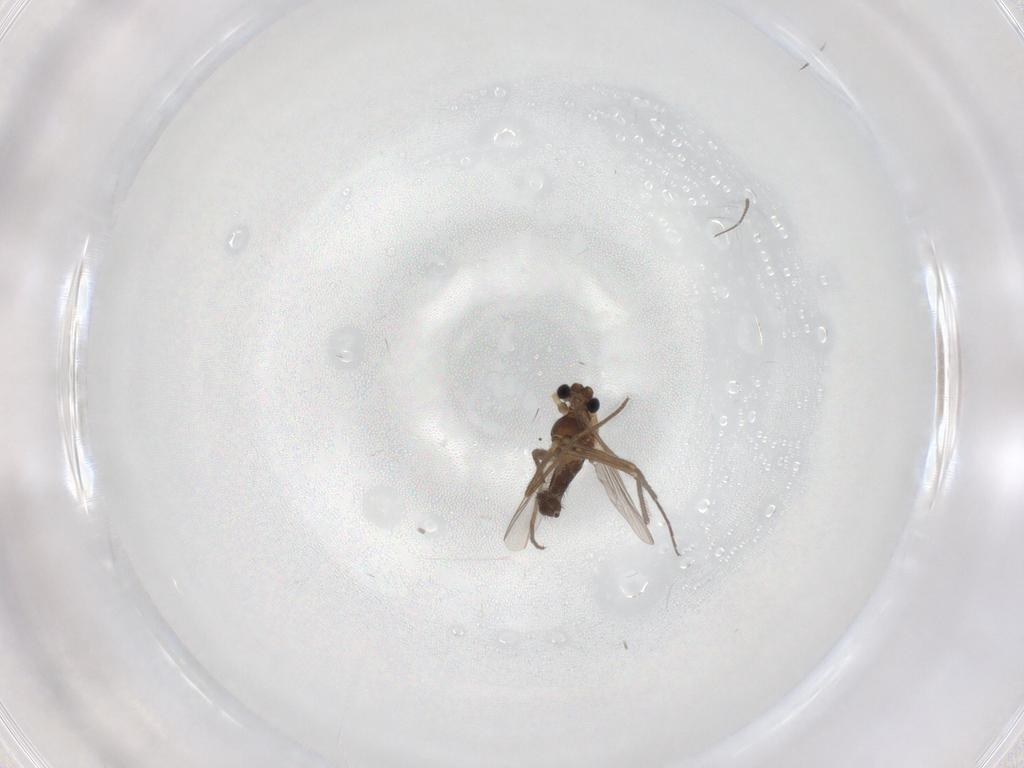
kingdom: Animalia
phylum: Arthropoda
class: Insecta
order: Diptera
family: Chironomidae
